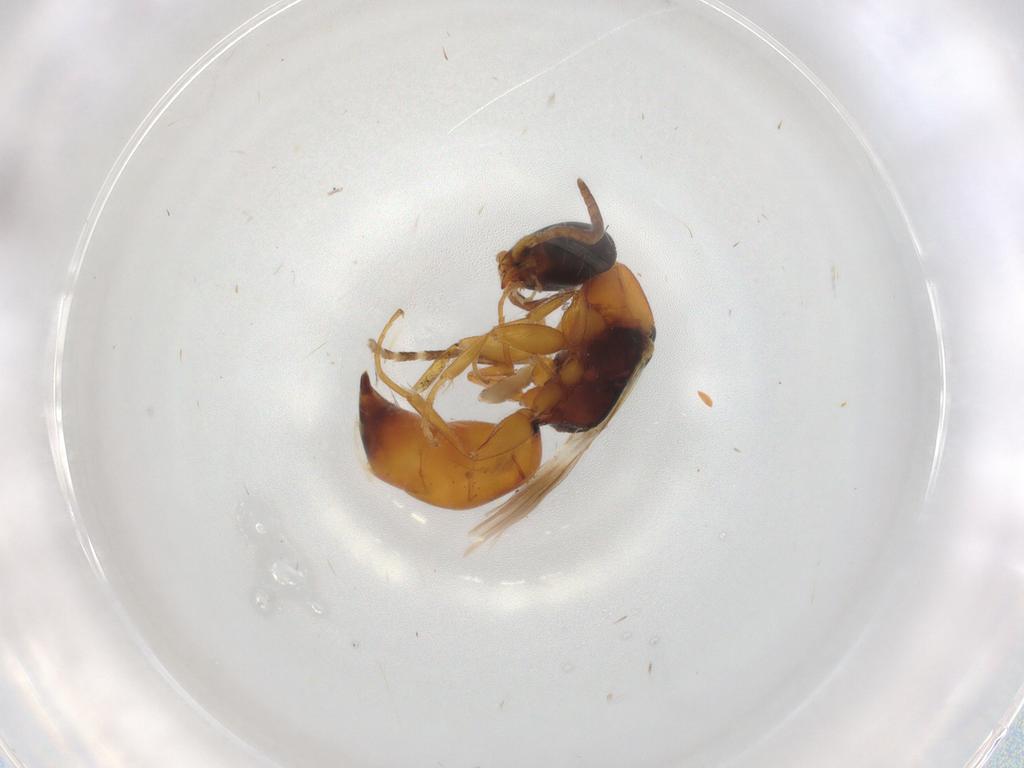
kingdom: Animalia
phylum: Arthropoda
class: Insecta
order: Hymenoptera
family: Bethylidae
